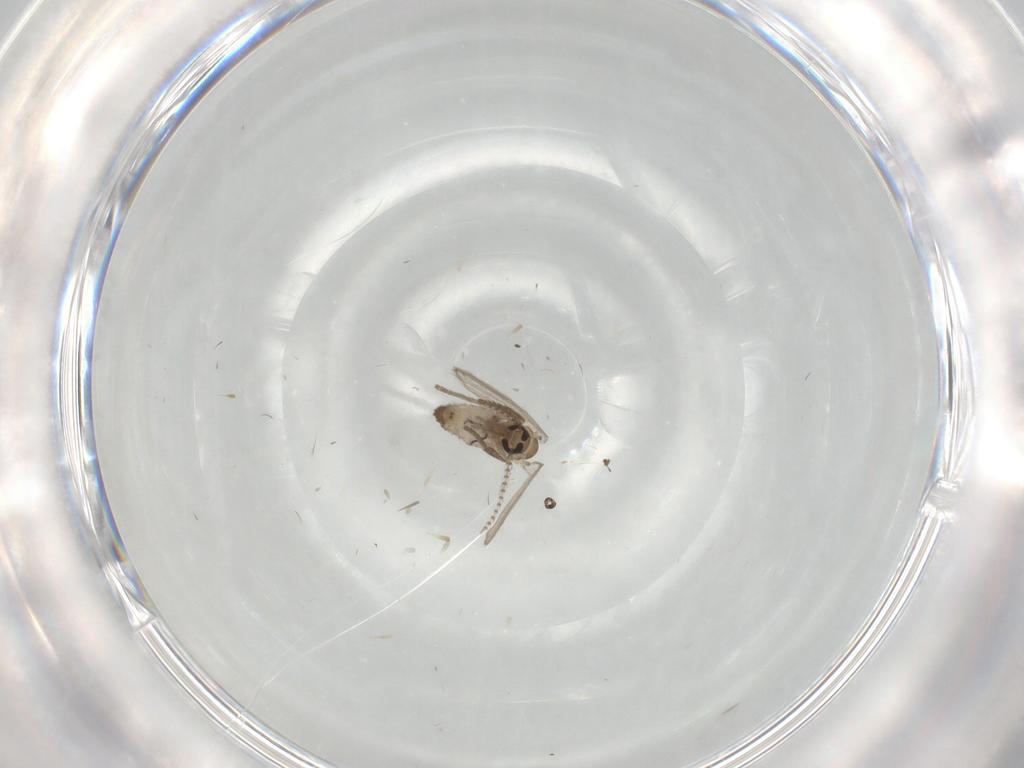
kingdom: Animalia
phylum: Arthropoda
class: Insecta
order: Diptera
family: Psychodidae
